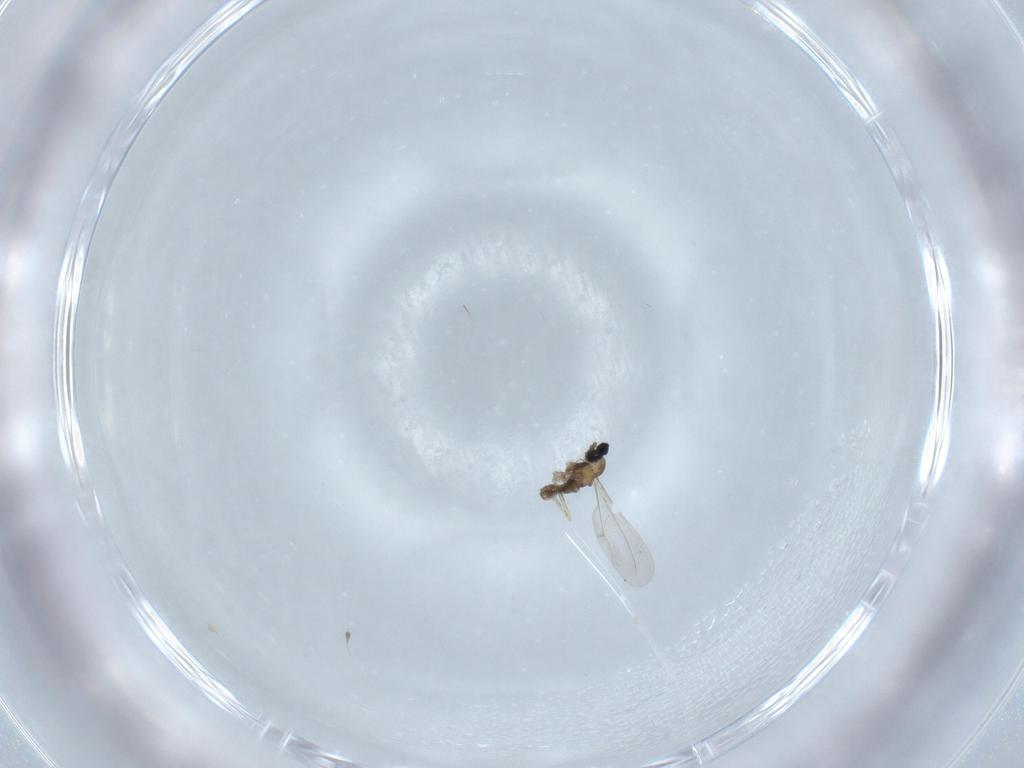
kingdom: Animalia
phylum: Arthropoda
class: Insecta
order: Diptera
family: Cecidomyiidae
